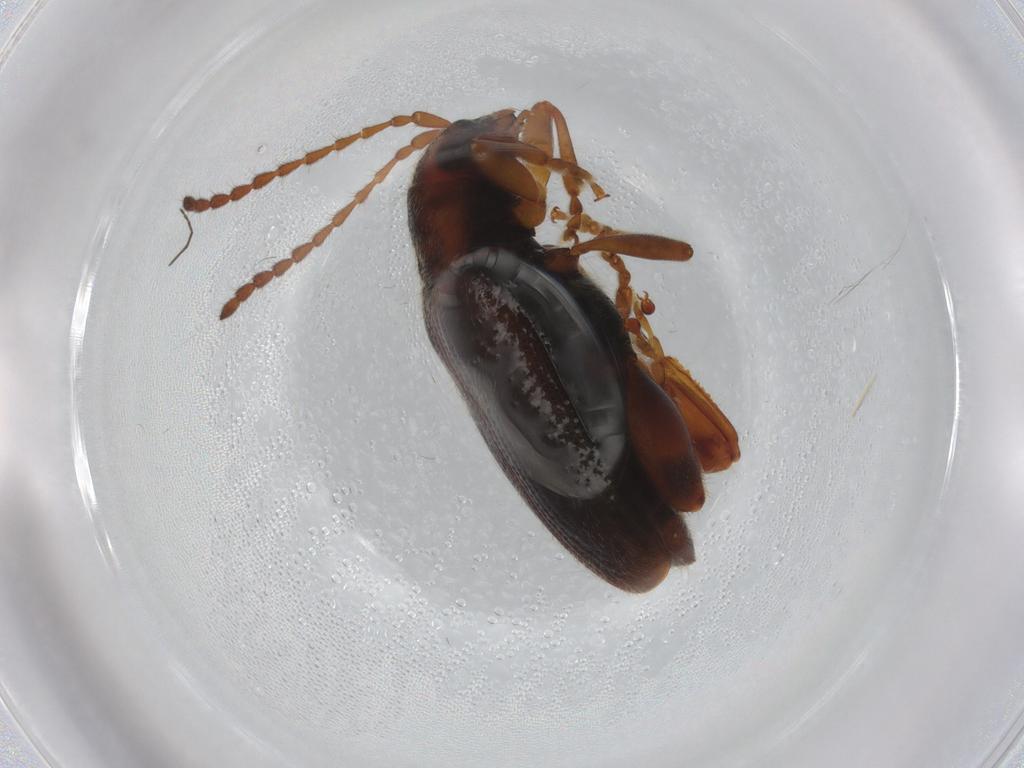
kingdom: Animalia
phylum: Arthropoda
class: Insecta
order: Coleoptera
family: Chrysomelidae
